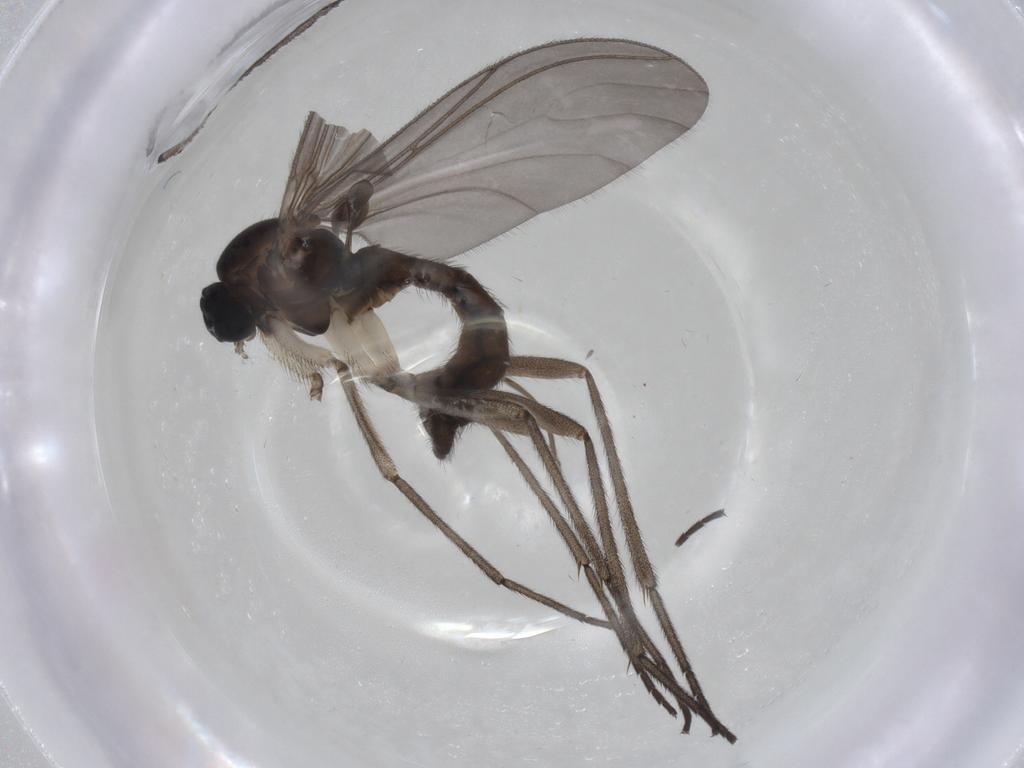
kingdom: Animalia
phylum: Arthropoda
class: Insecta
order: Diptera
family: Sciaridae
